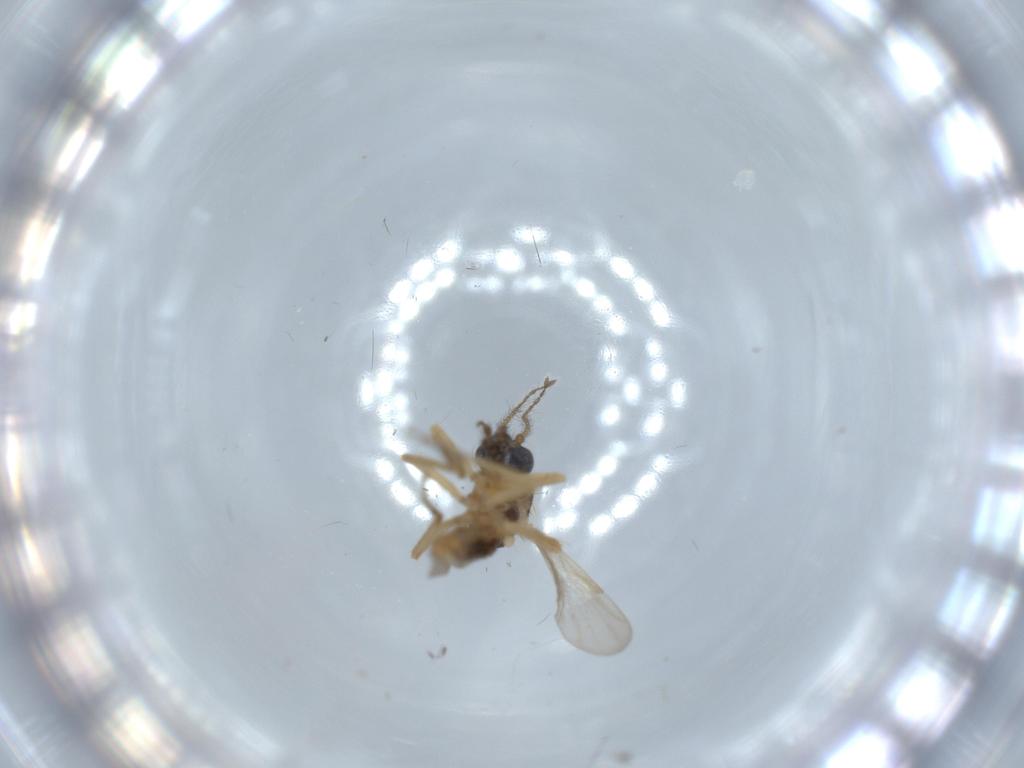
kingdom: Animalia
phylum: Arthropoda
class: Insecta
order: Diptera
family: Ceratopogonidae
